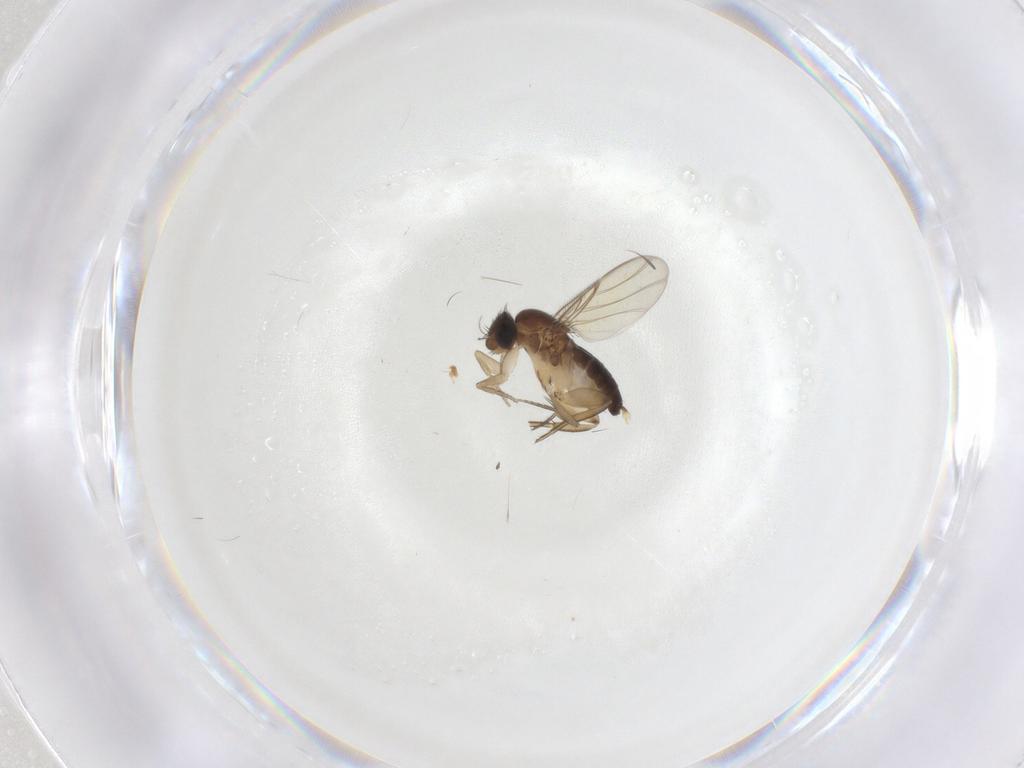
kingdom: Animalia
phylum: Arthropoda
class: Insecta
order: Diptera
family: Phoridae
